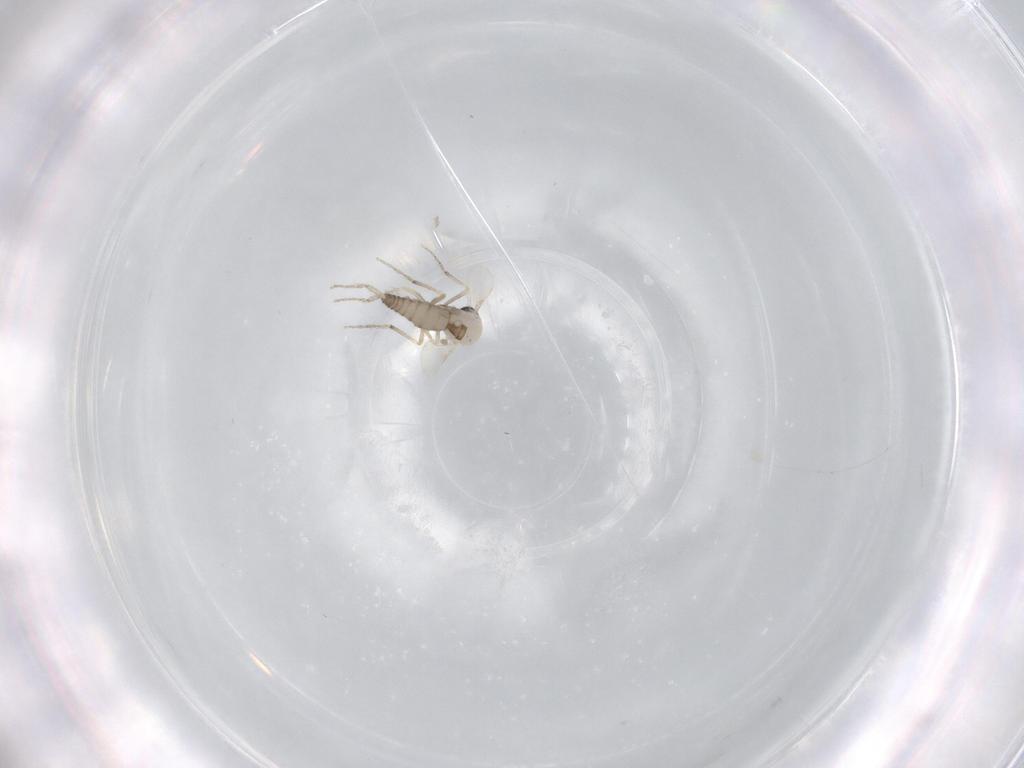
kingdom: Animalia
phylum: Arthropoda
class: Insecta
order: Diptera
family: Ceratopogonidae
